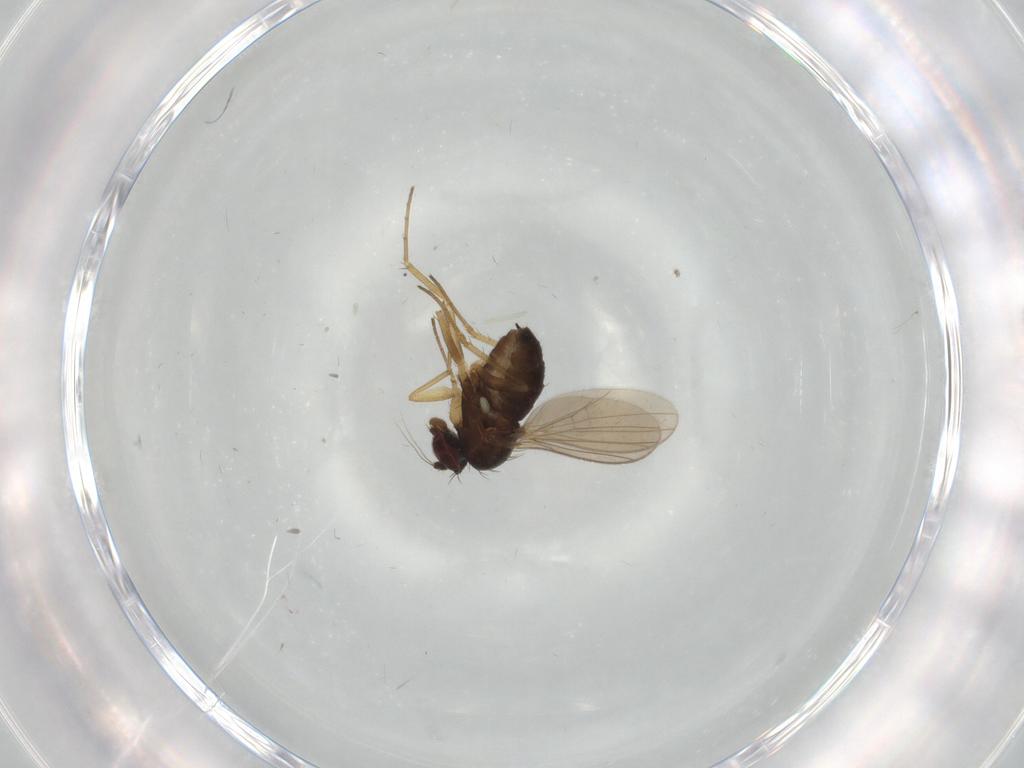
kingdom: Animalia
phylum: Arthropoda
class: Insecta
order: Diptera
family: Dolichopodidae
